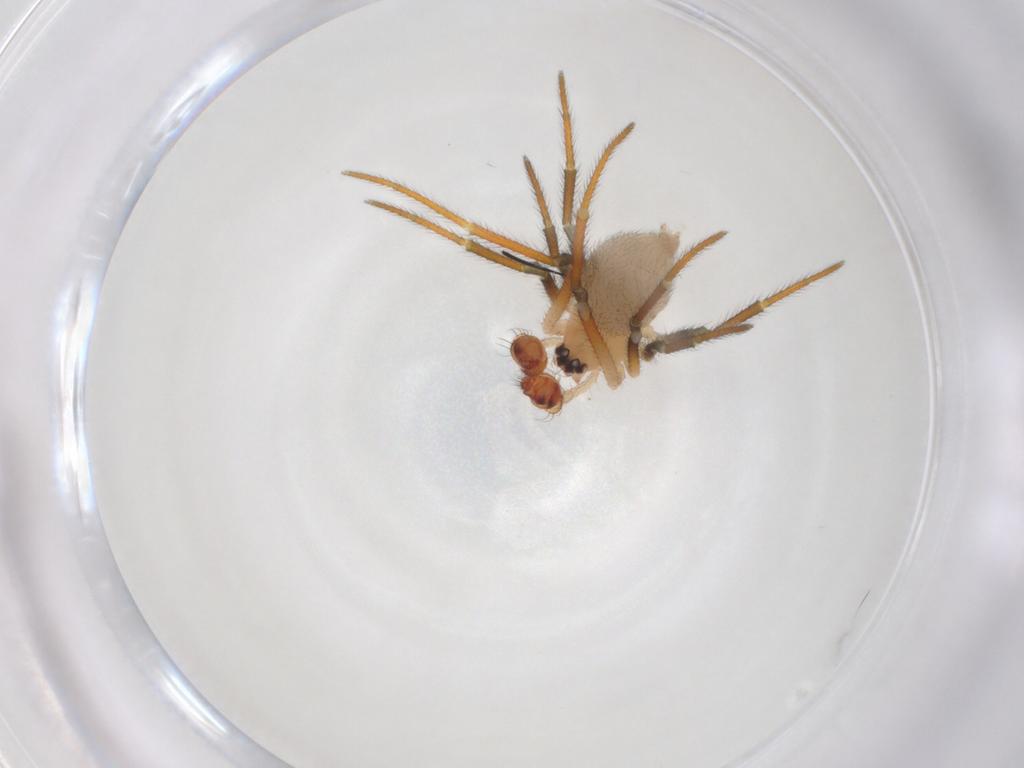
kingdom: Animalia
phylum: Arthropoda
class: Arachnida
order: Araneae
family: Theridiidae
